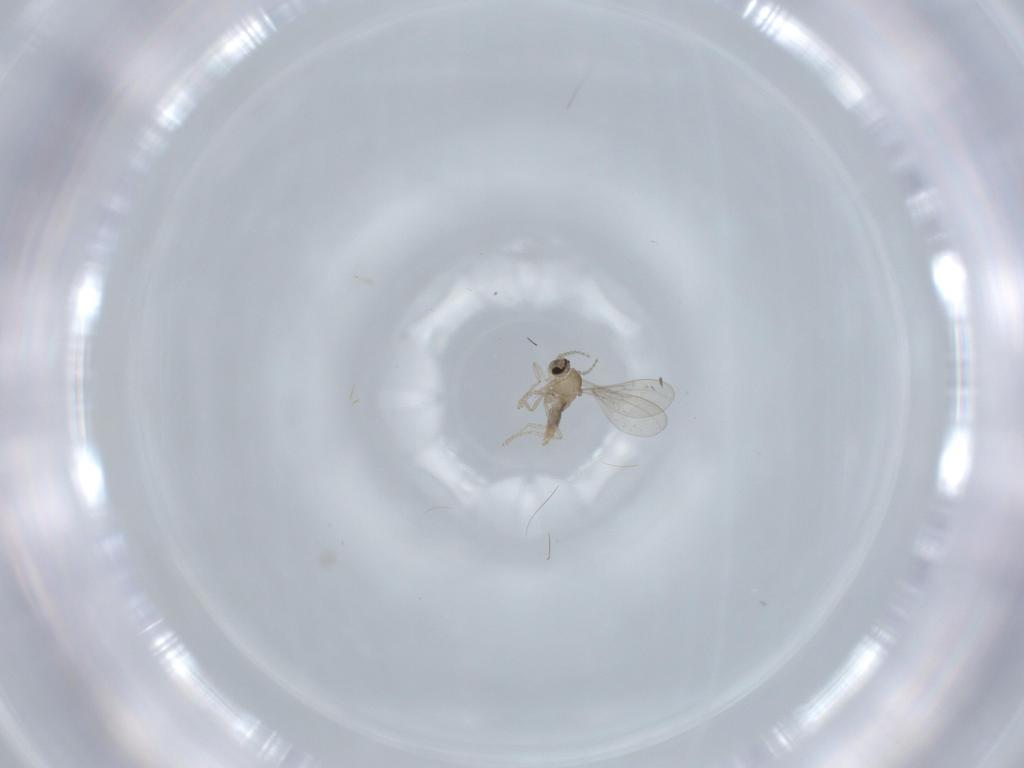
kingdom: Animalia
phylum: Arthropoda
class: Insecta
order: Diptera
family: Cecidomyiidae
